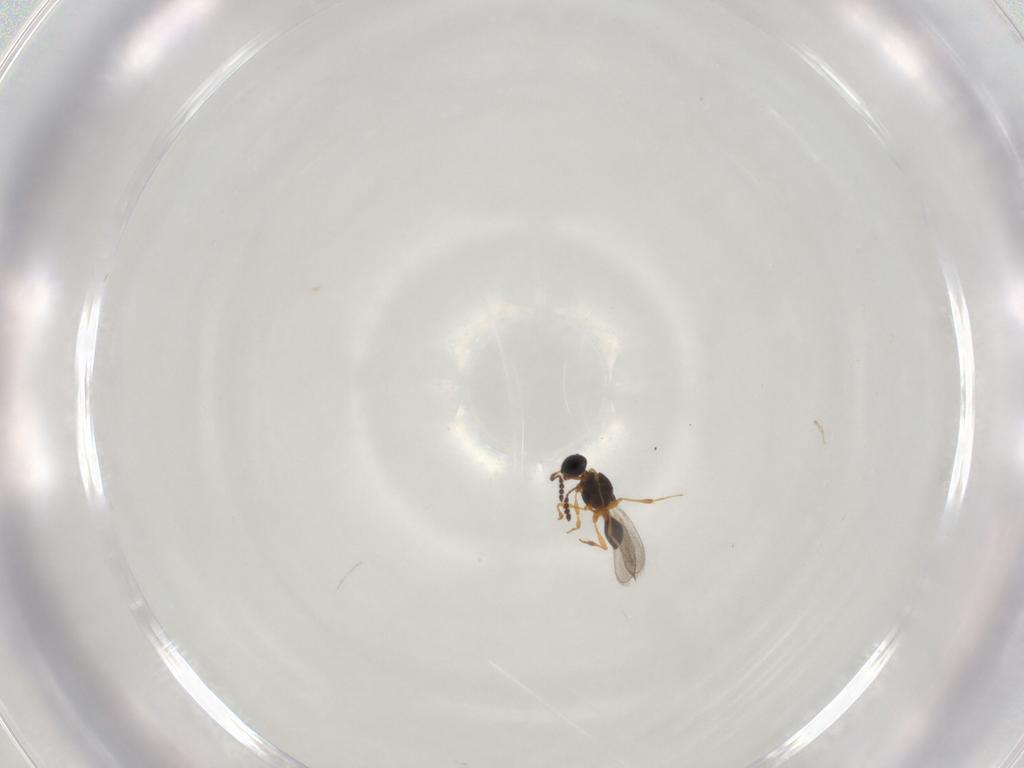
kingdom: Animalia
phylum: Arthropoda
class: Insecta
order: Hymenoptera
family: Platygastridae
